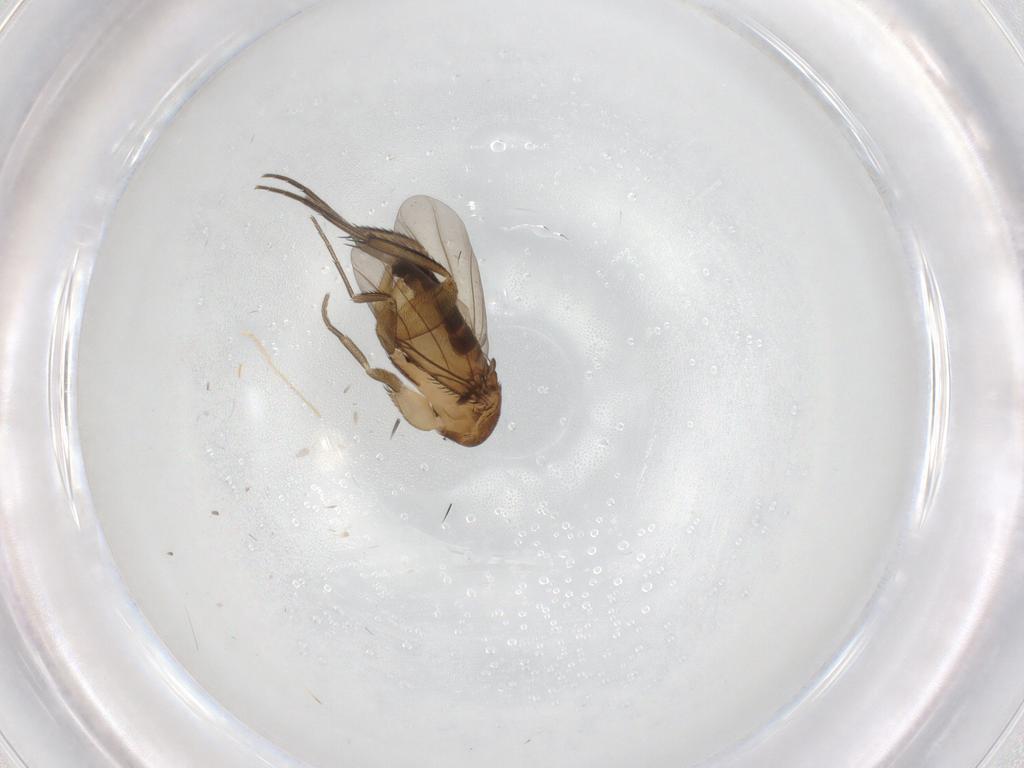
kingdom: Animalia
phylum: Arthropoda
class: Insecta
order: Diptera
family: Phoridae
